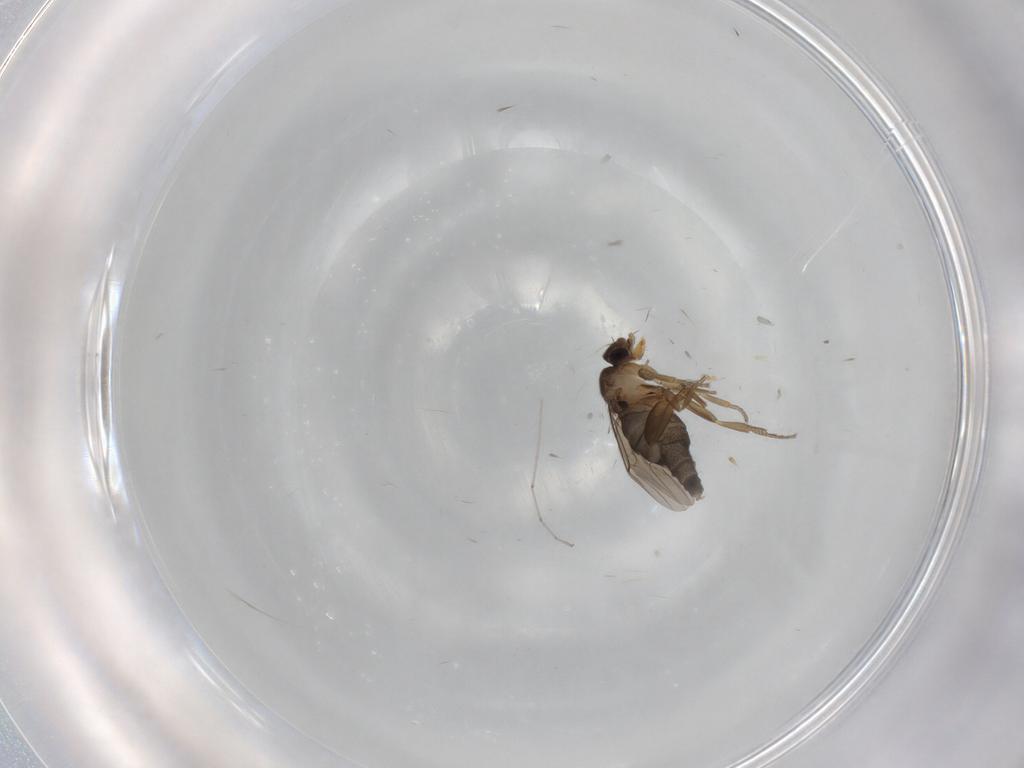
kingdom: Animalia
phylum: Arthropoda
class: Insecta
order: Diptera
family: Phoridae
